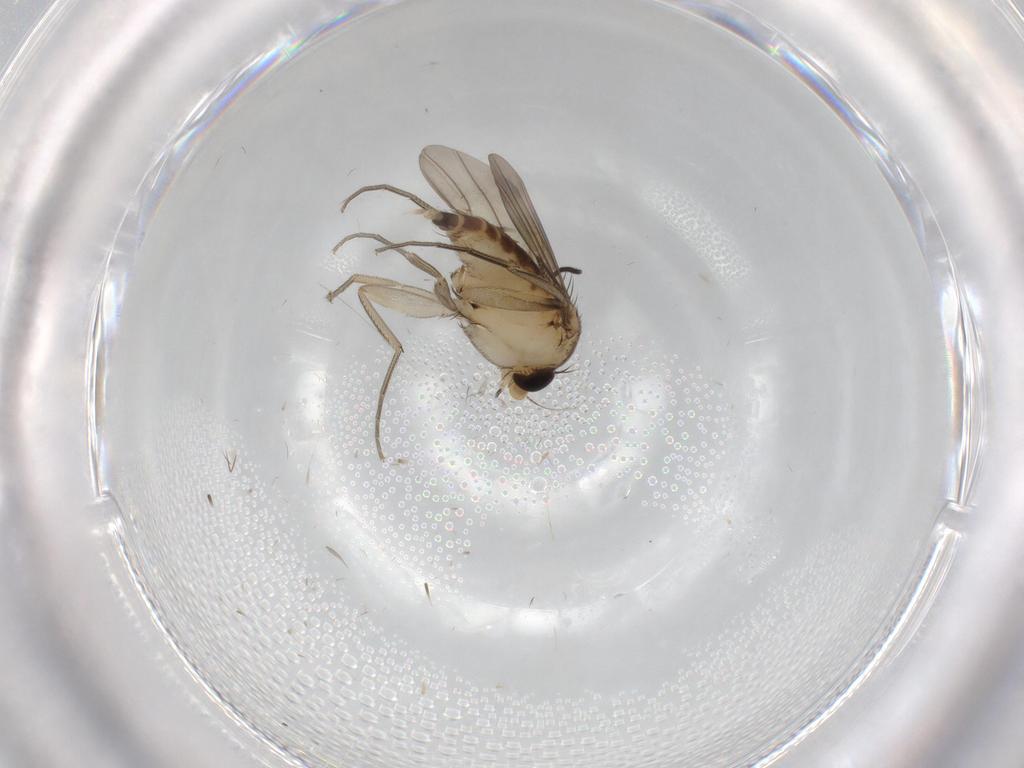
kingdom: Animalia
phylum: Arthropoda
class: Insecta
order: Diptera
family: Phoridae
